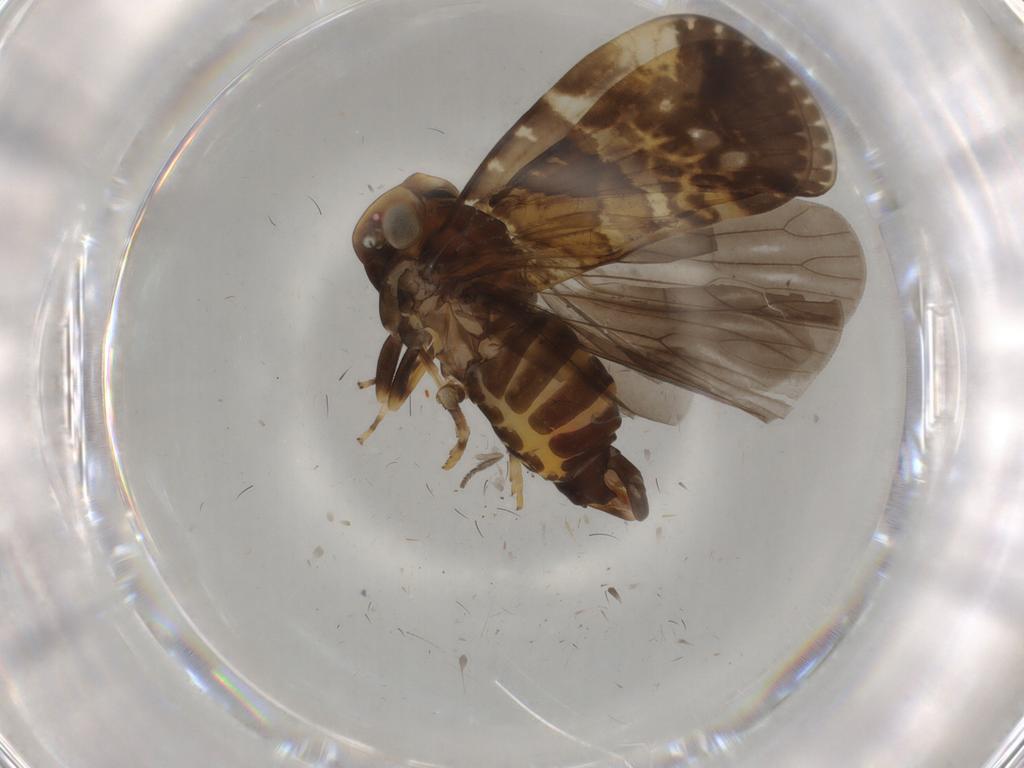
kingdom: Animalia
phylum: Arthropoda
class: Insecta
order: Hemiptera
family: Cixiidae
